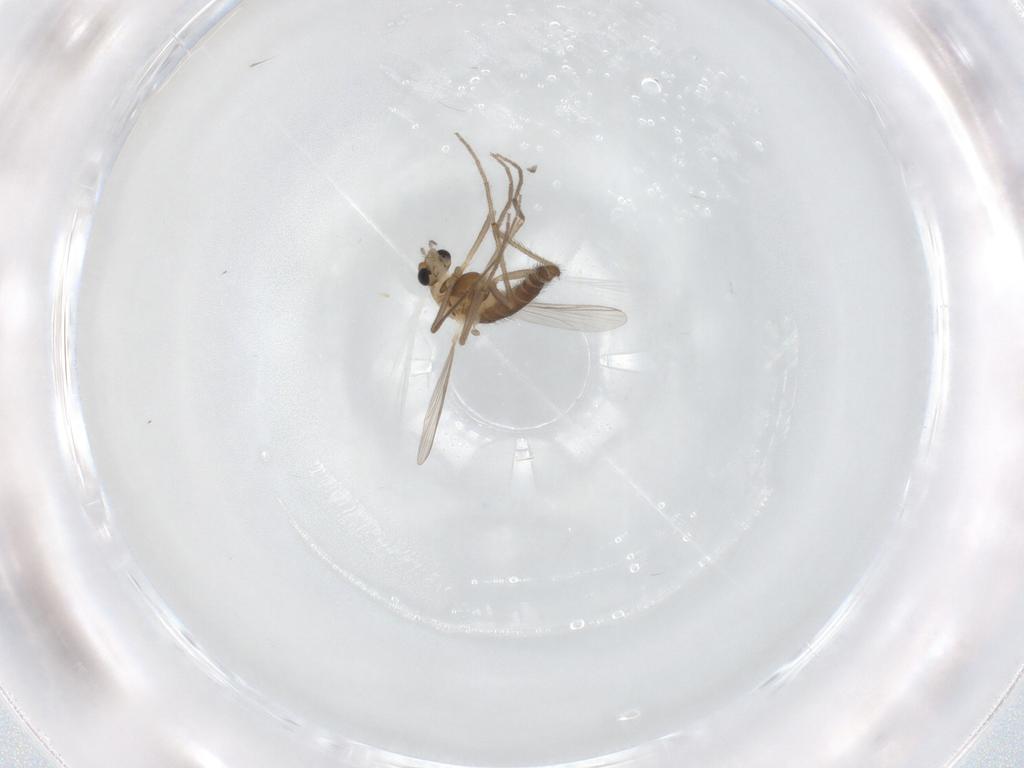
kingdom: Animalia
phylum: Arthropoda
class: Insecta
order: Diptera
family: Chironomidae
